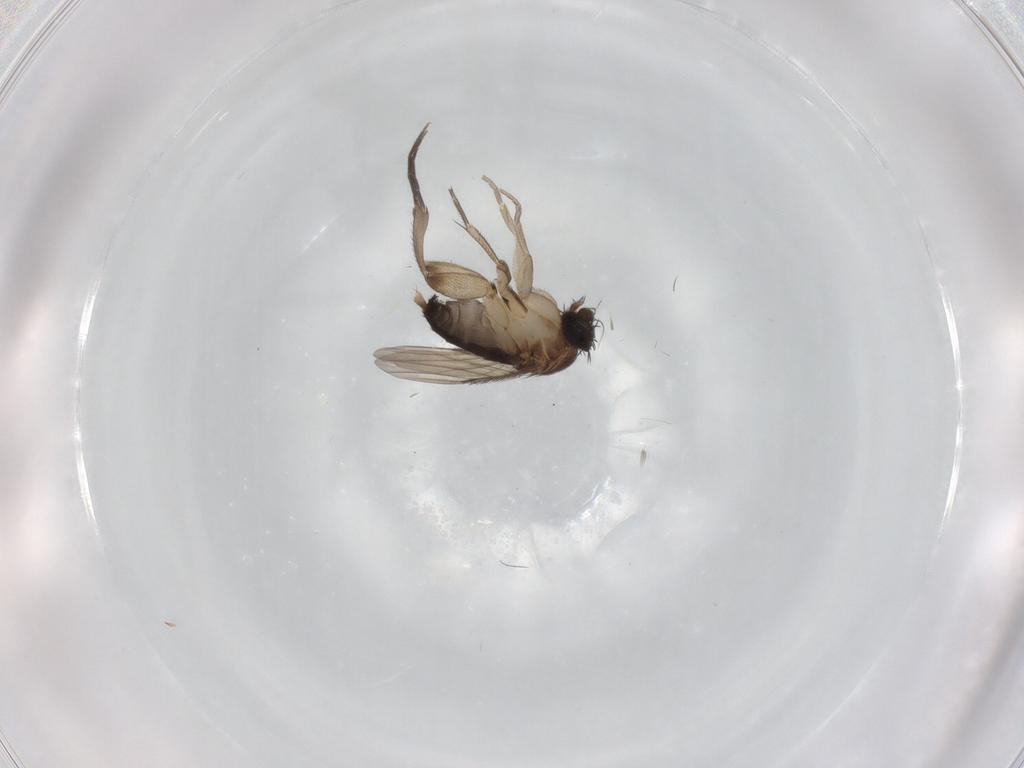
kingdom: Animalia
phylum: Arthropoda
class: Insecta
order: Diptera
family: Phoridae
